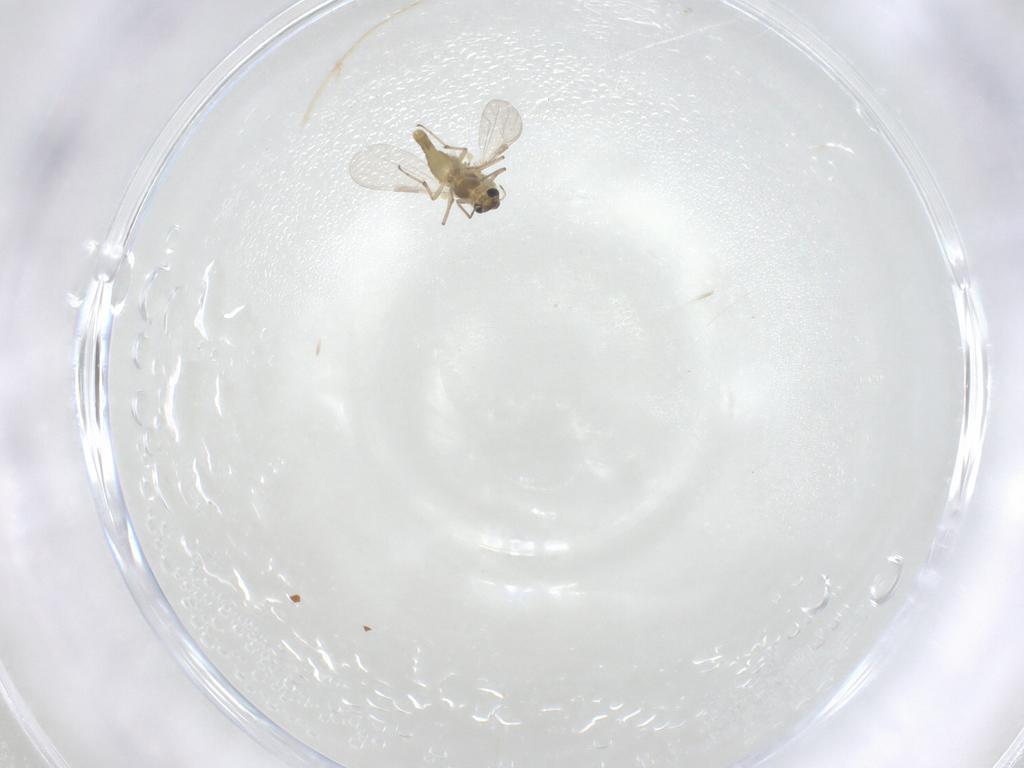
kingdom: Animalia
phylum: Arthropoda
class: Insecta
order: Diptera
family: Chironomidae
